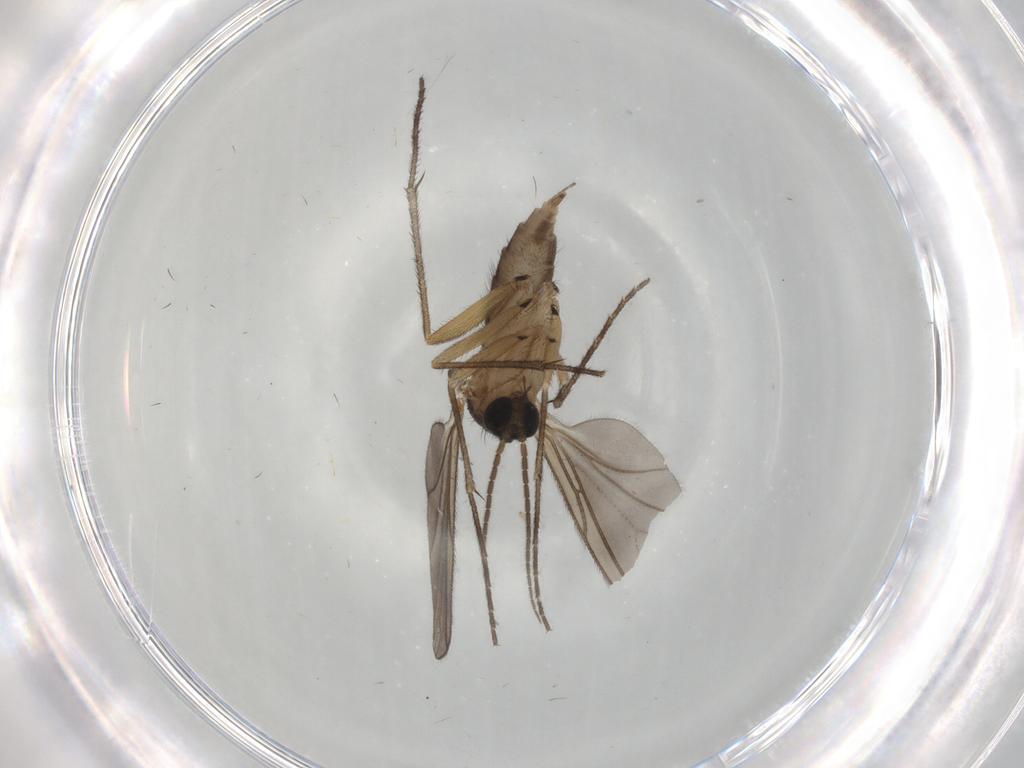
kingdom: Animalia
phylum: Arthropoda
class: Insecta
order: Diptera
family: Sciaridae
